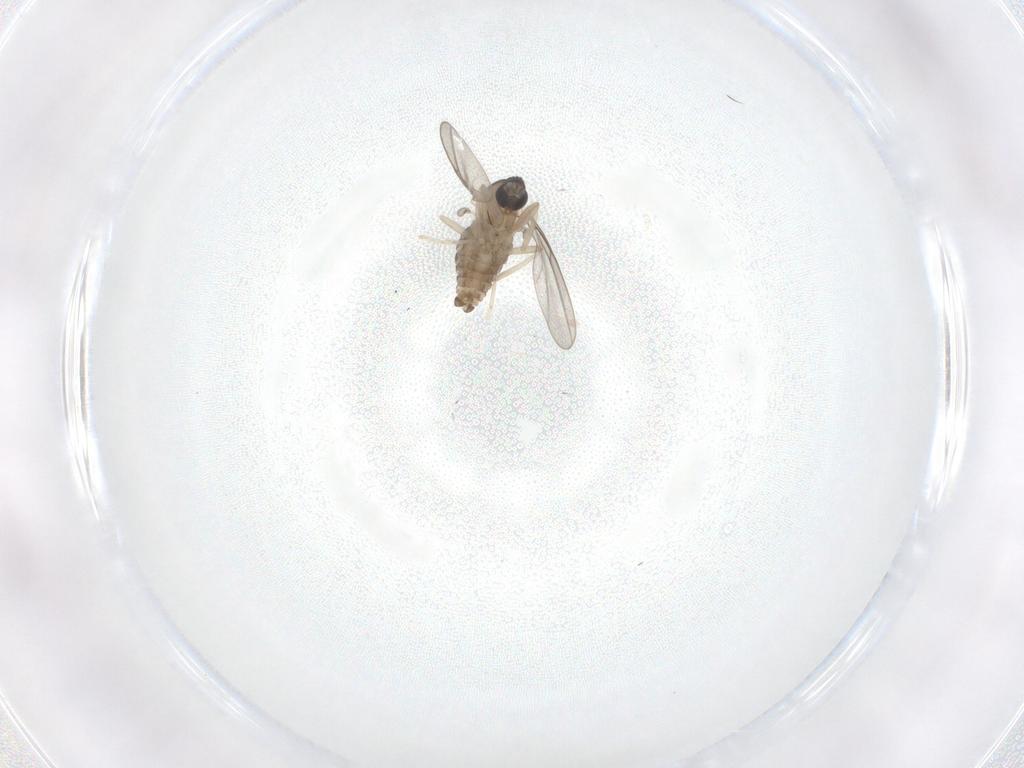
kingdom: Animalia
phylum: Arthropoda
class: Insecta
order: Diptera
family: Cecidomyiidae
